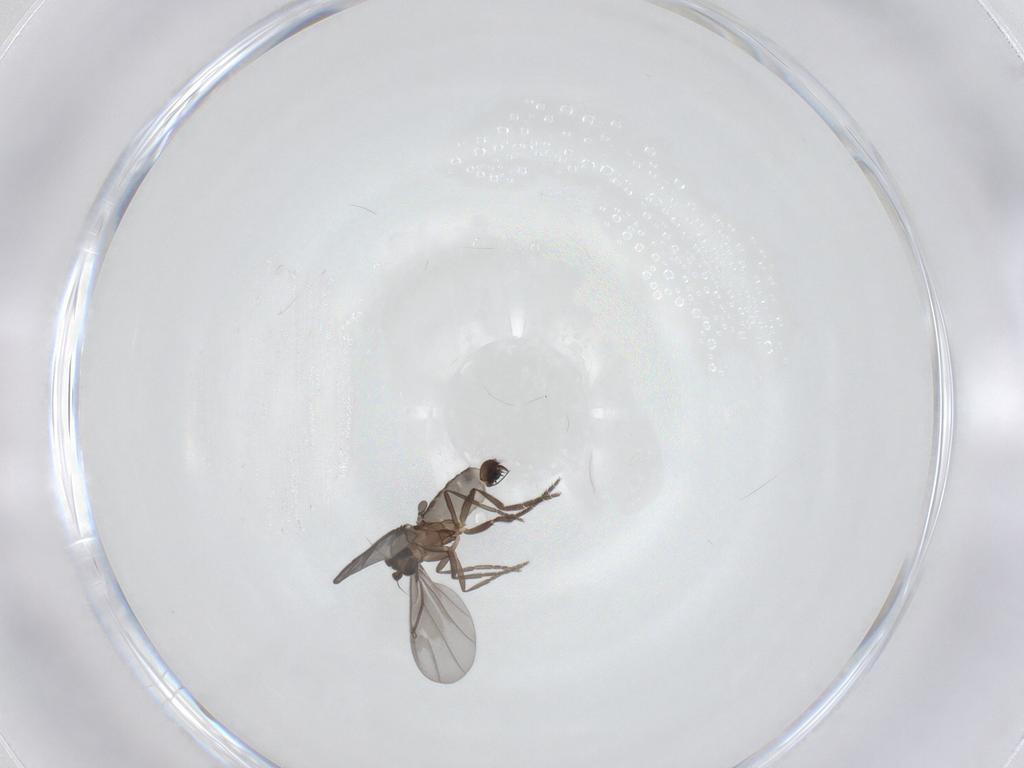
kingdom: Animalia
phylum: Arthropoda
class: Insecta
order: Diptera
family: Phoridae
